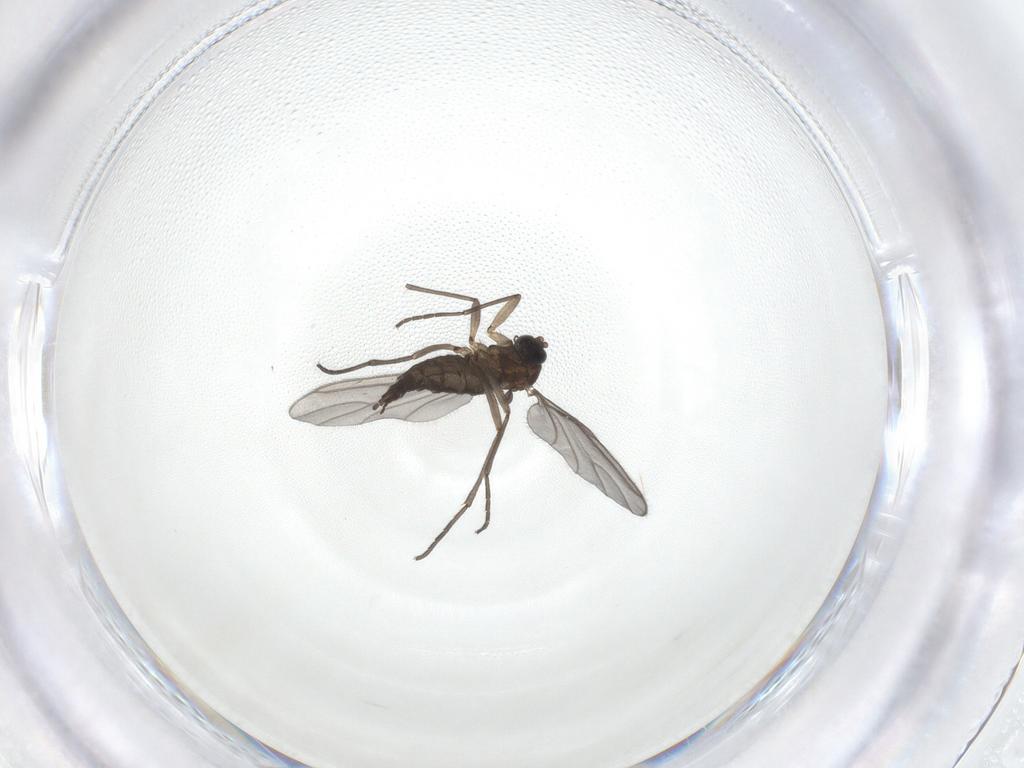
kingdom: Animalia
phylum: Arthropoda
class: Insecta
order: Diptera
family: Sciaridae
